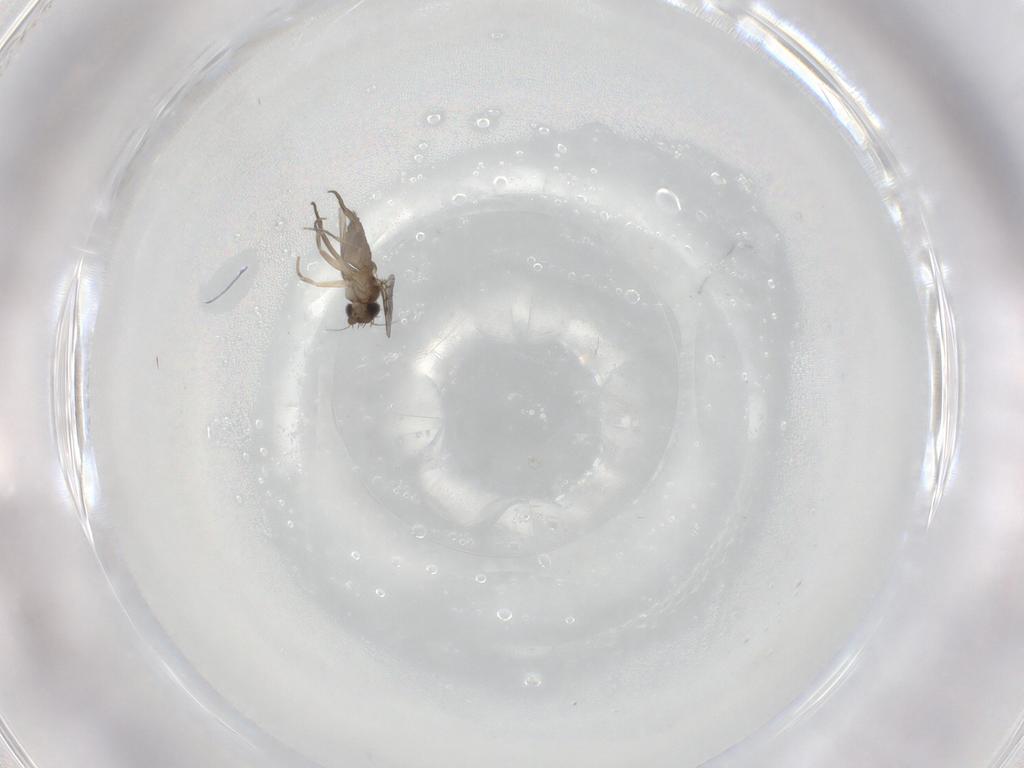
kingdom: Animalia
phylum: Arthropoda
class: Insecta
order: Diptera
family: Phoridae
